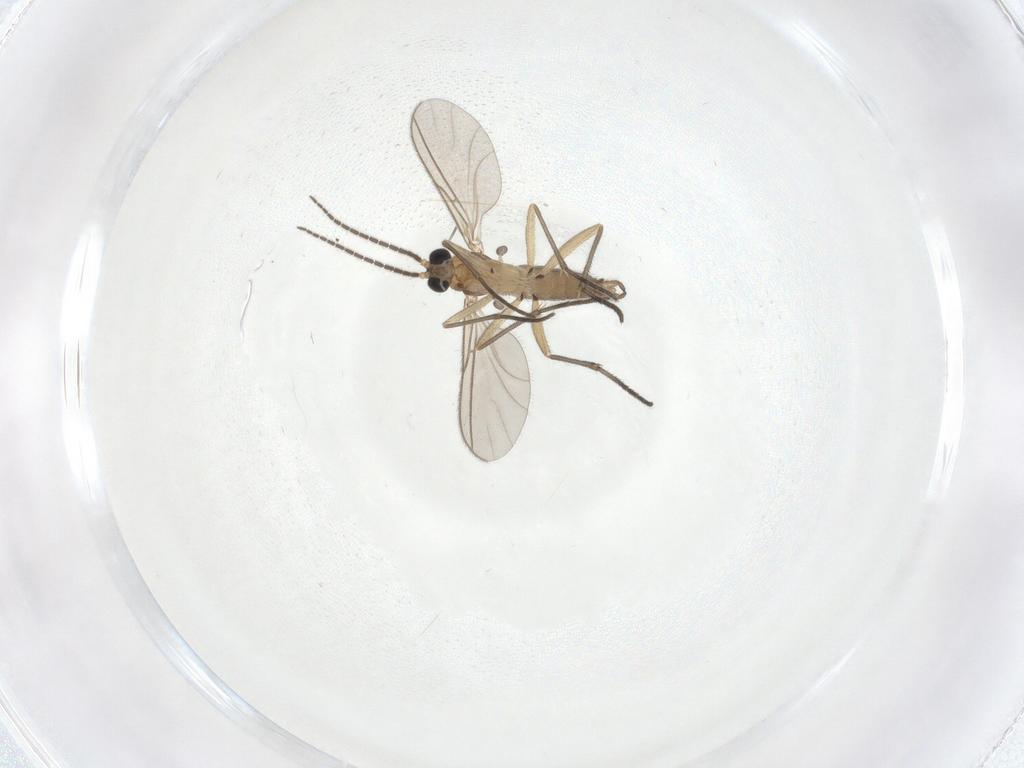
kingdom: Animalia
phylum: Arthropoda
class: Insecta
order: Diptera
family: Sciaridae
